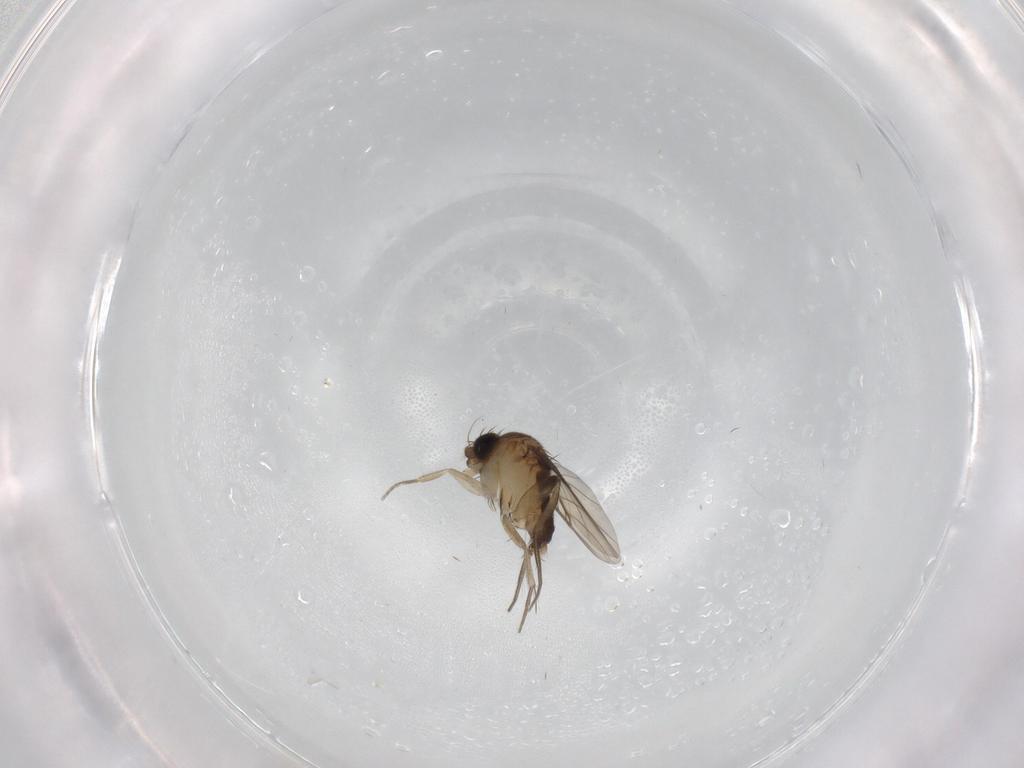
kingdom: Animalia
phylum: Arthropoda
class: Insecta
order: Diptera
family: Phoridae
